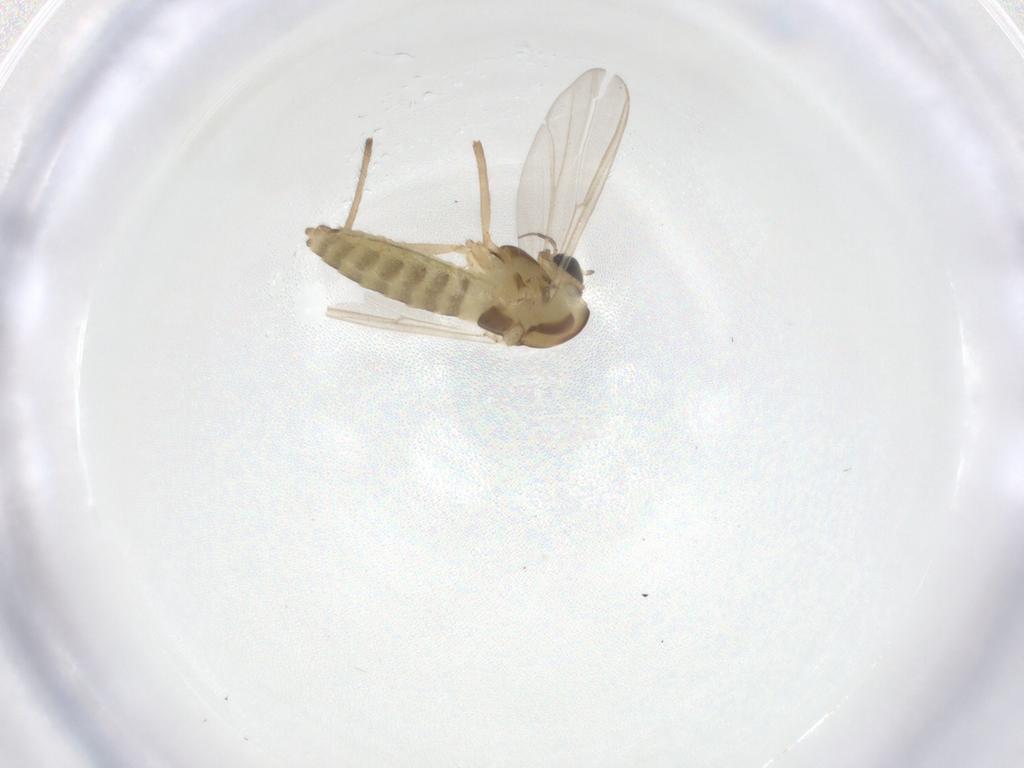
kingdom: Animalia
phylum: Arthropoda
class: Insecta
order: Diptera
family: Chironomidae
